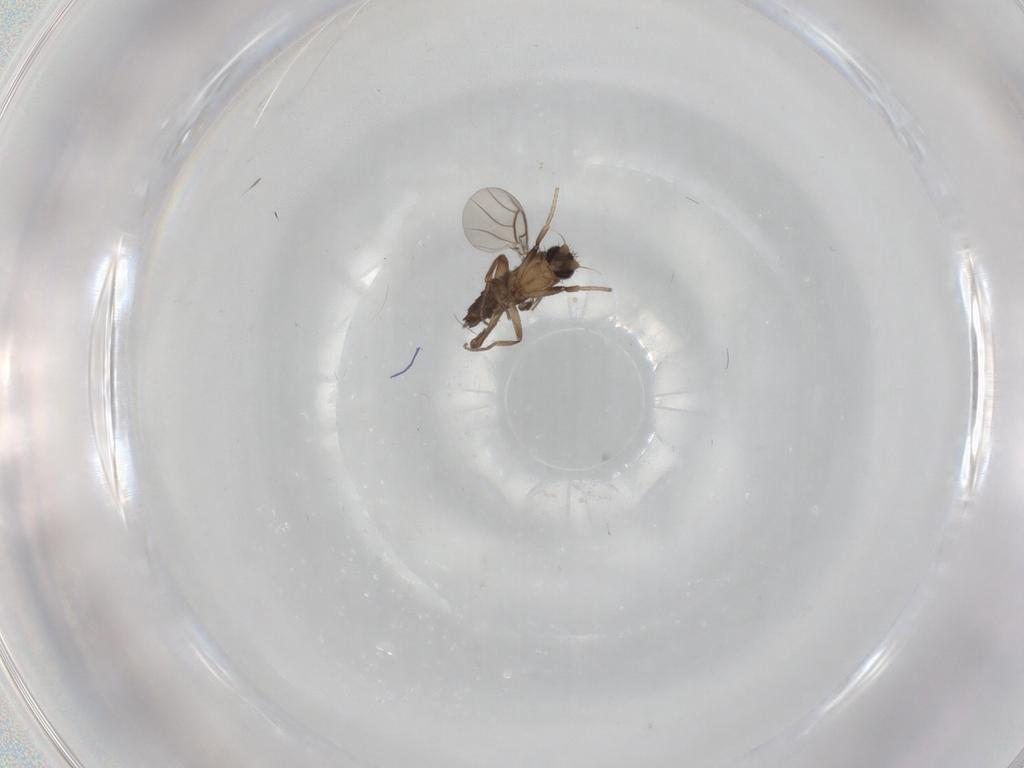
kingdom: Animalia
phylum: Arthropoda
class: Insecta
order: Diptera
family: Phoridae
